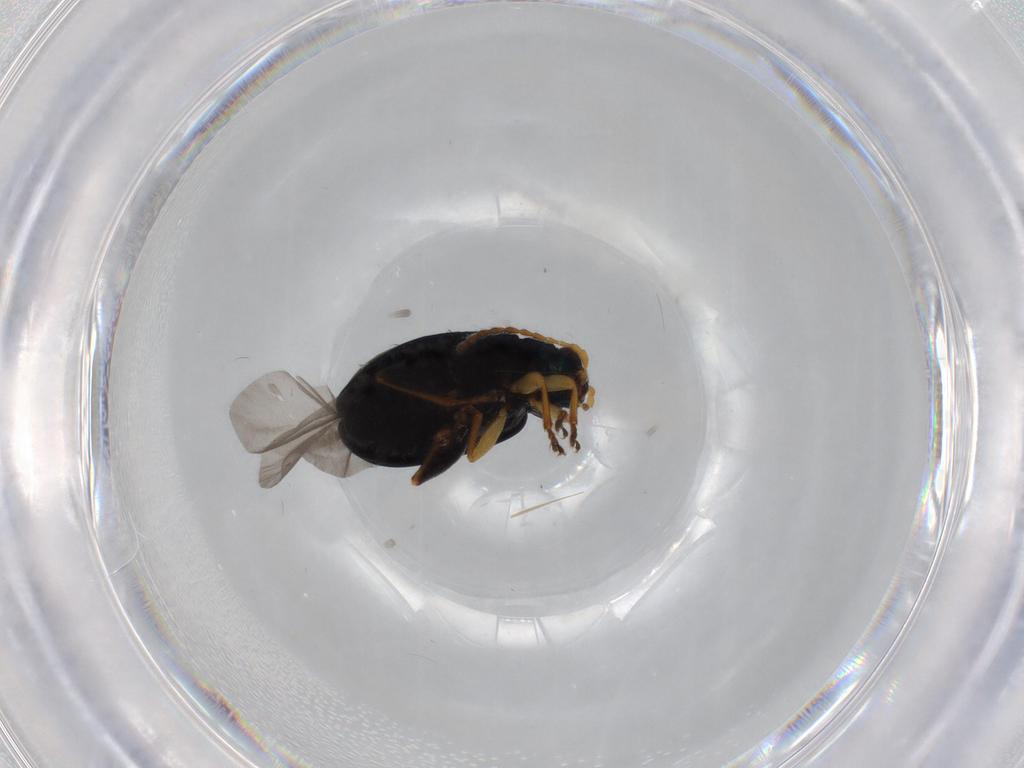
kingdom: Animalia
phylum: Arthropoda
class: Insecta
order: Coleoptera
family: Chrysomelidae
